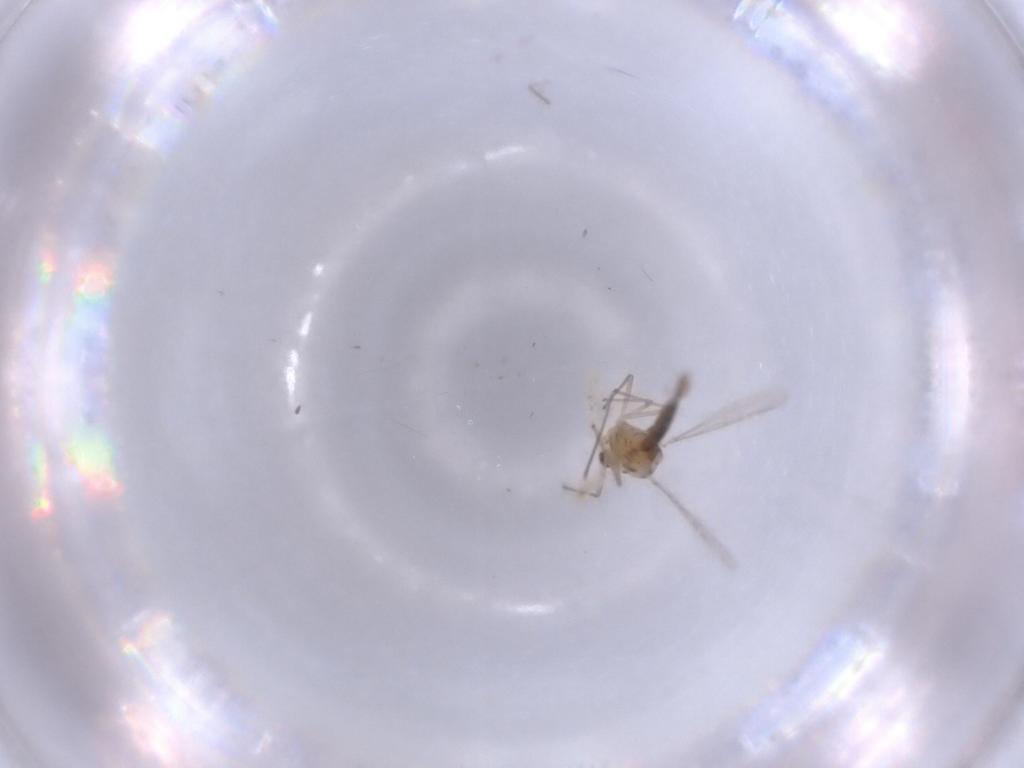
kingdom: Animalia
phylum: Arthropoda
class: Insecta
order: Diptera
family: Chironomidae
